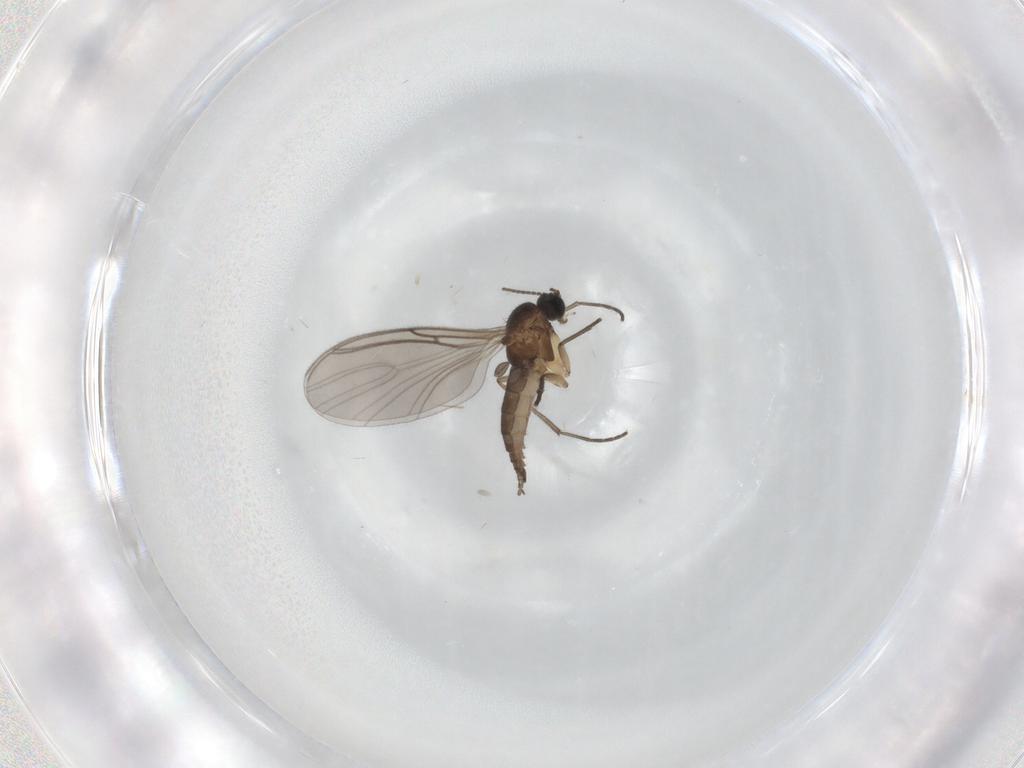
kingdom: Animalia
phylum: Arthropoda
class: Insecta
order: Diptera
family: Sciaridae
